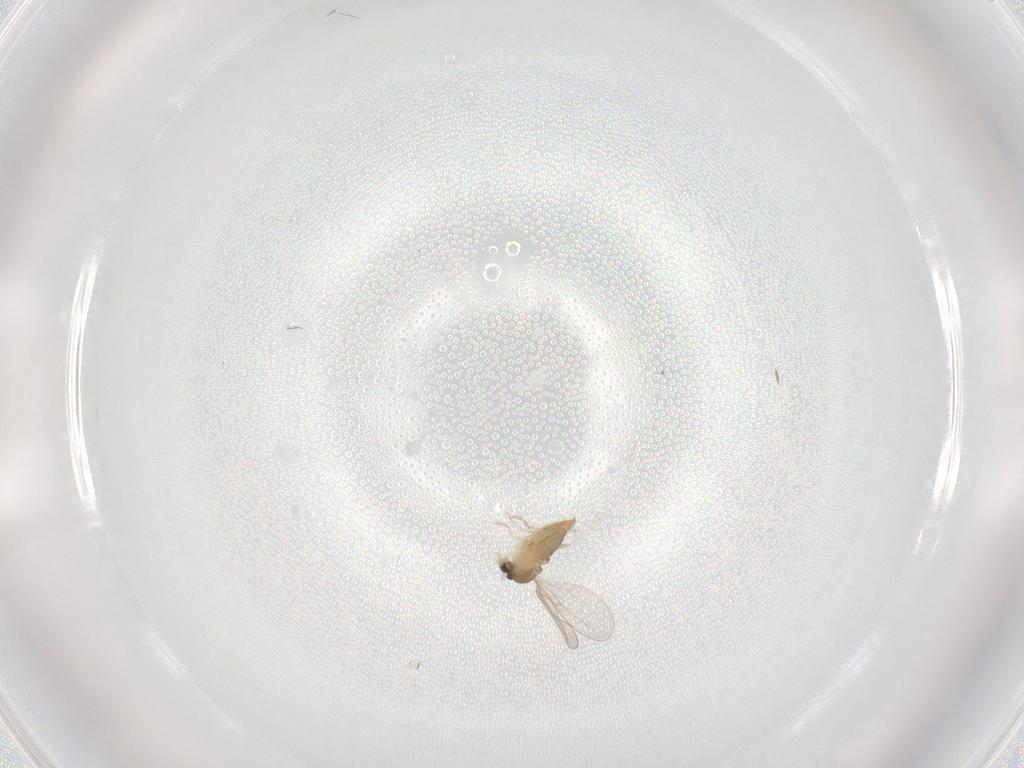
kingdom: Animalia
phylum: Arthropoda
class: Insecta
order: Diptera
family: Cecidomyiidae
